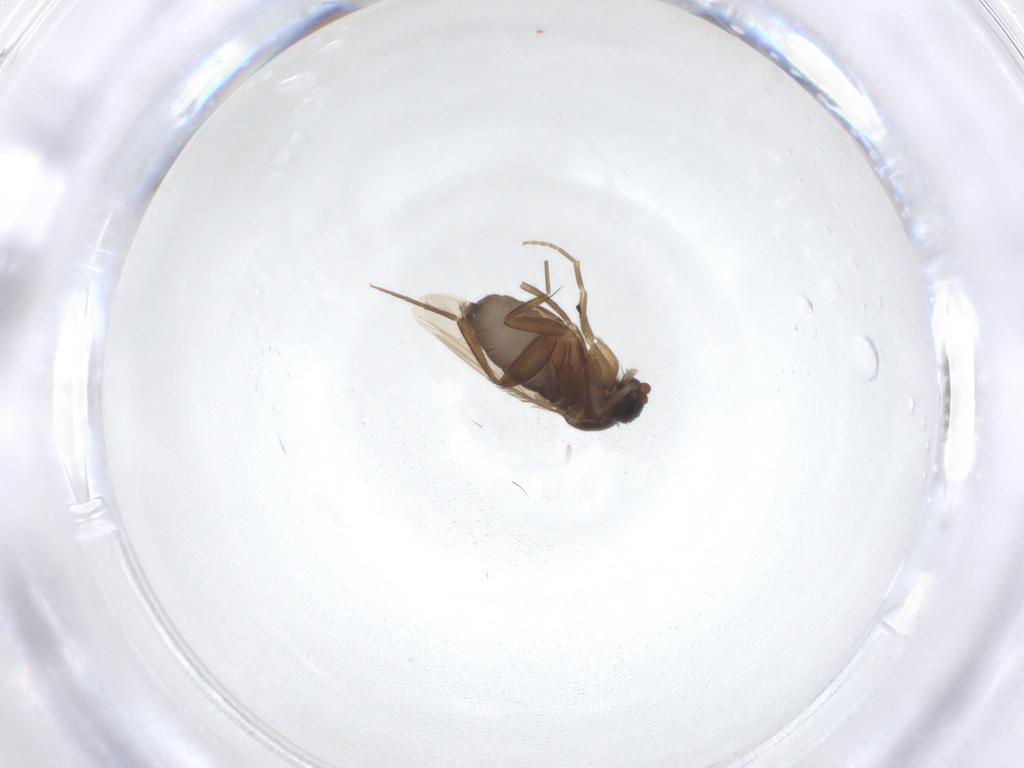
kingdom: Animalia
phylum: Arthropoda
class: Insecta
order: Diptera
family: Phoridae
